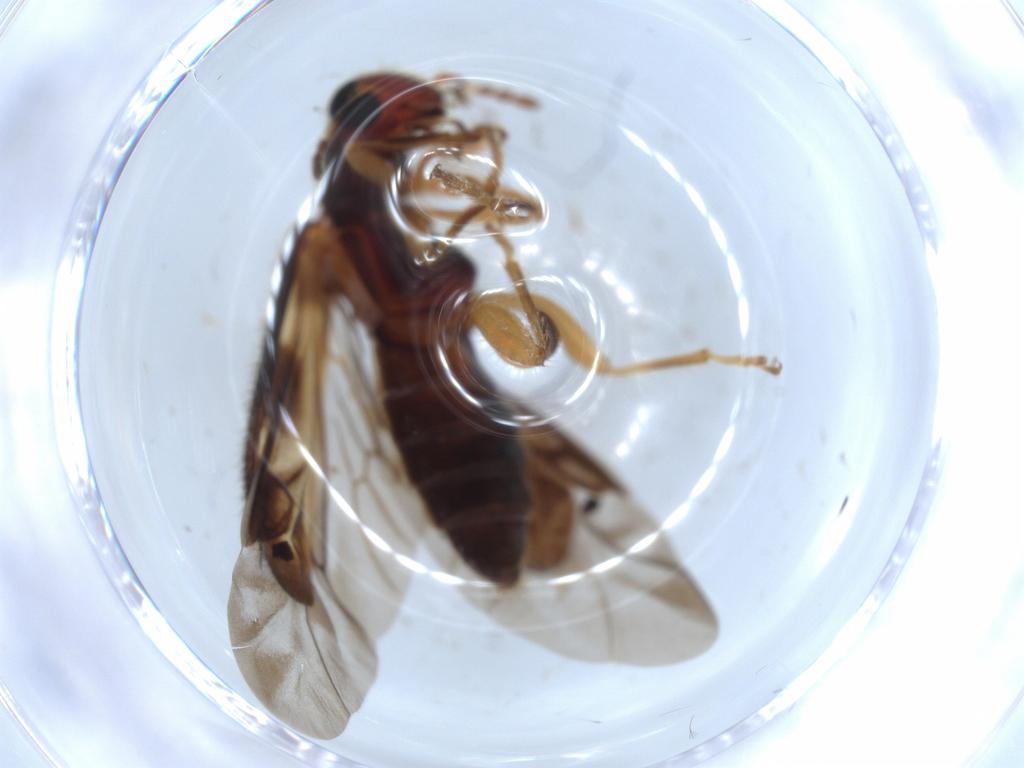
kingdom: Animalia
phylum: Arthropoda
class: Insecta
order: Coleoptera
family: Cleridae
